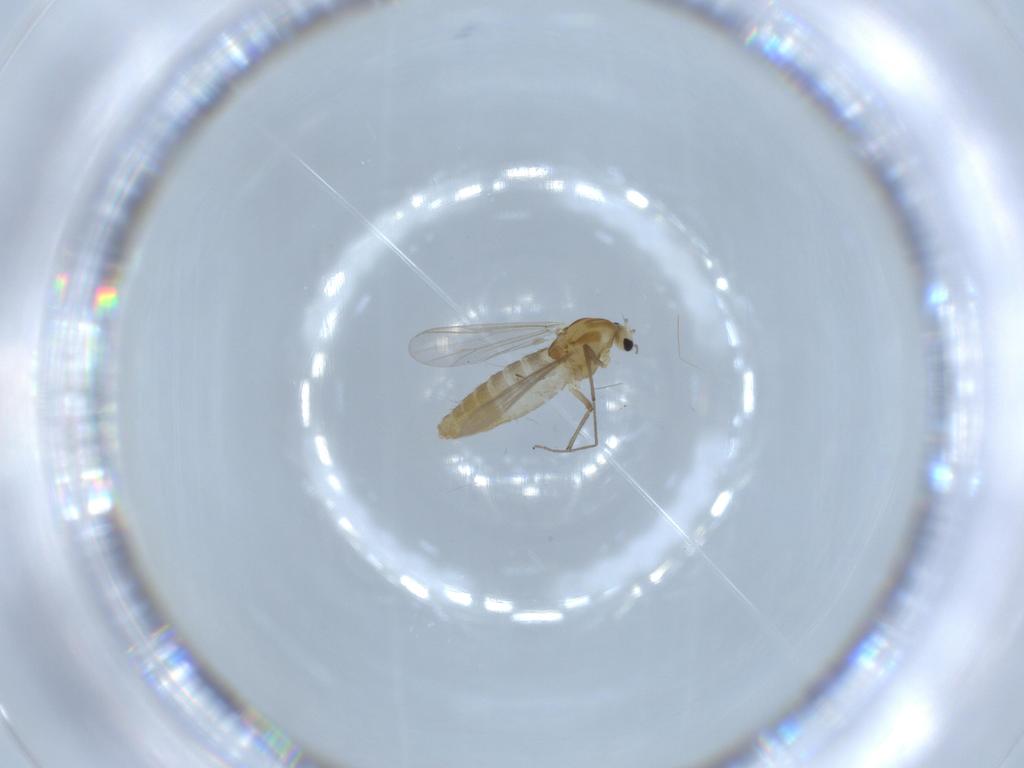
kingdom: Animalia
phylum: Arthropoda
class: Insecta
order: Diptera
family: Chironomidae
